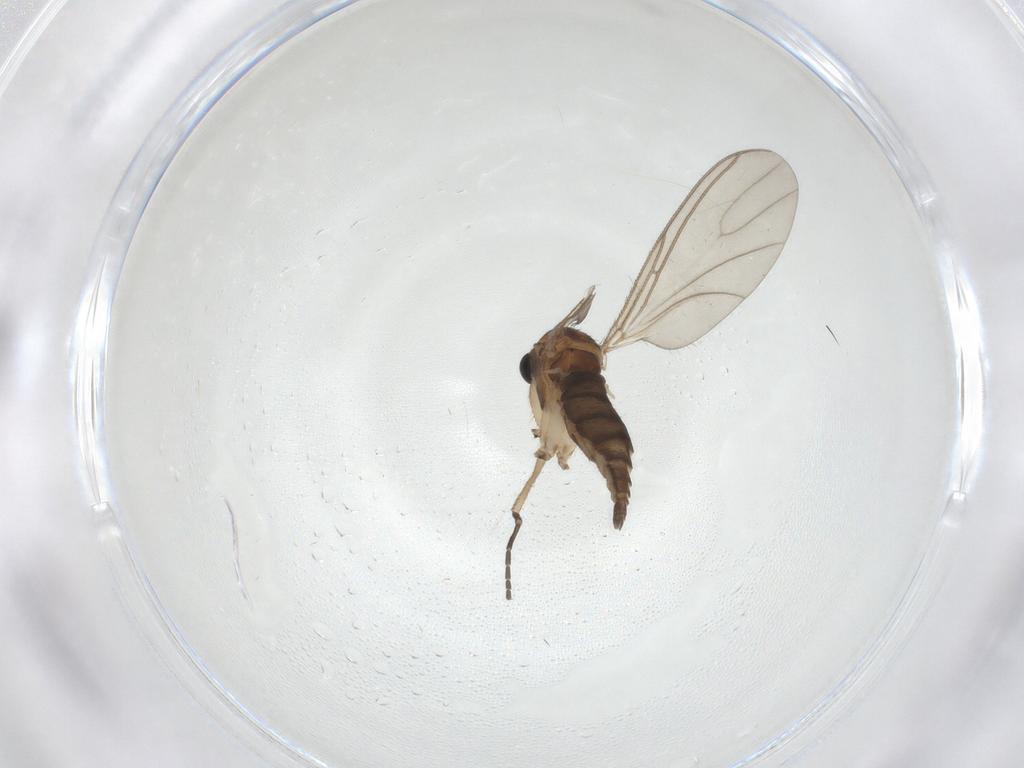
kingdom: Animalia
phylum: Arthropoda
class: Insecta
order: Diptera
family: Sciaridae
